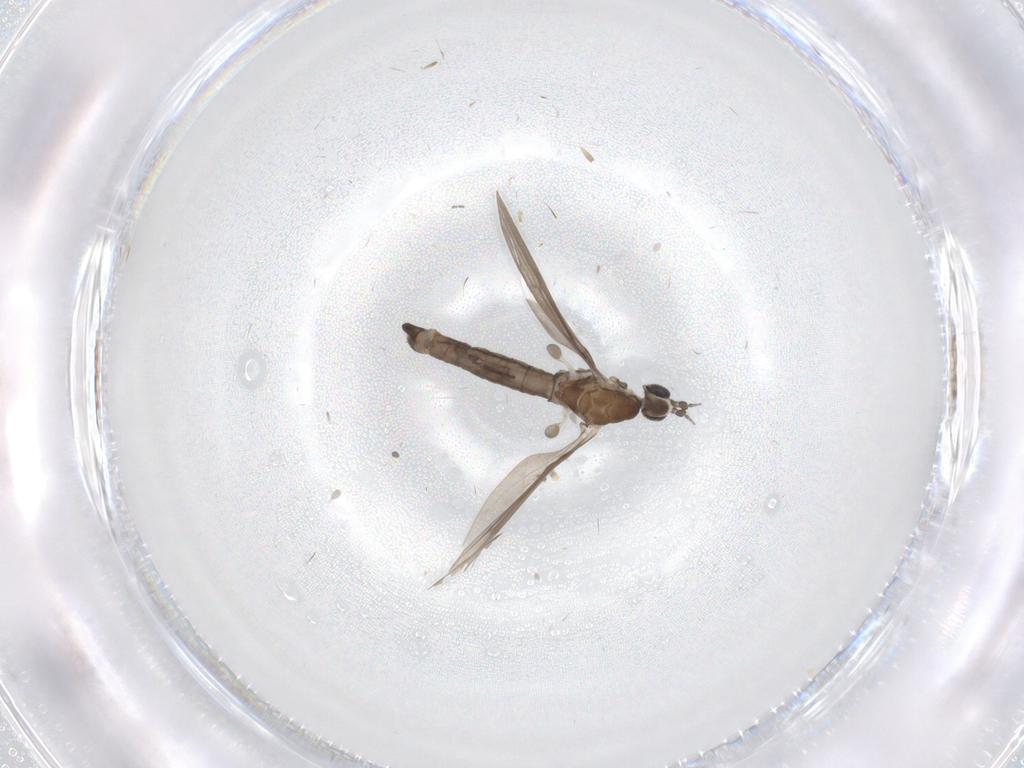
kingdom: Animalia
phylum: Arthropoda
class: Insecta
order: Diptera
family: Limoniidae
